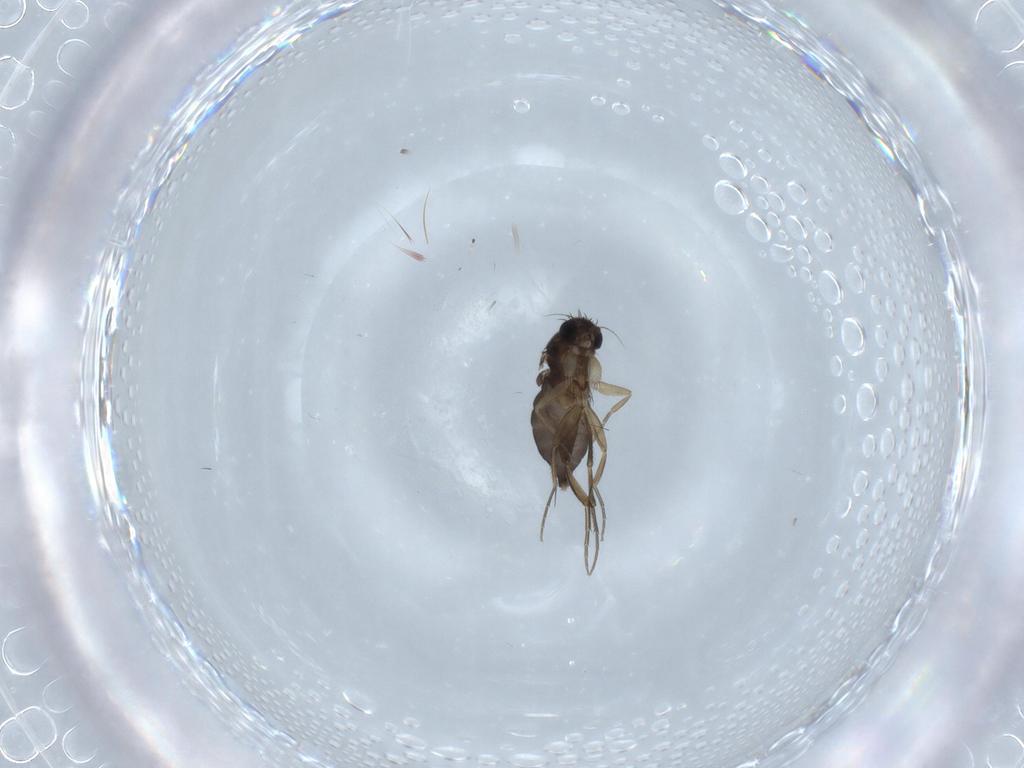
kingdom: Animalia
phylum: Arthropoda
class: Insecta
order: Diptera
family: Phoridae
